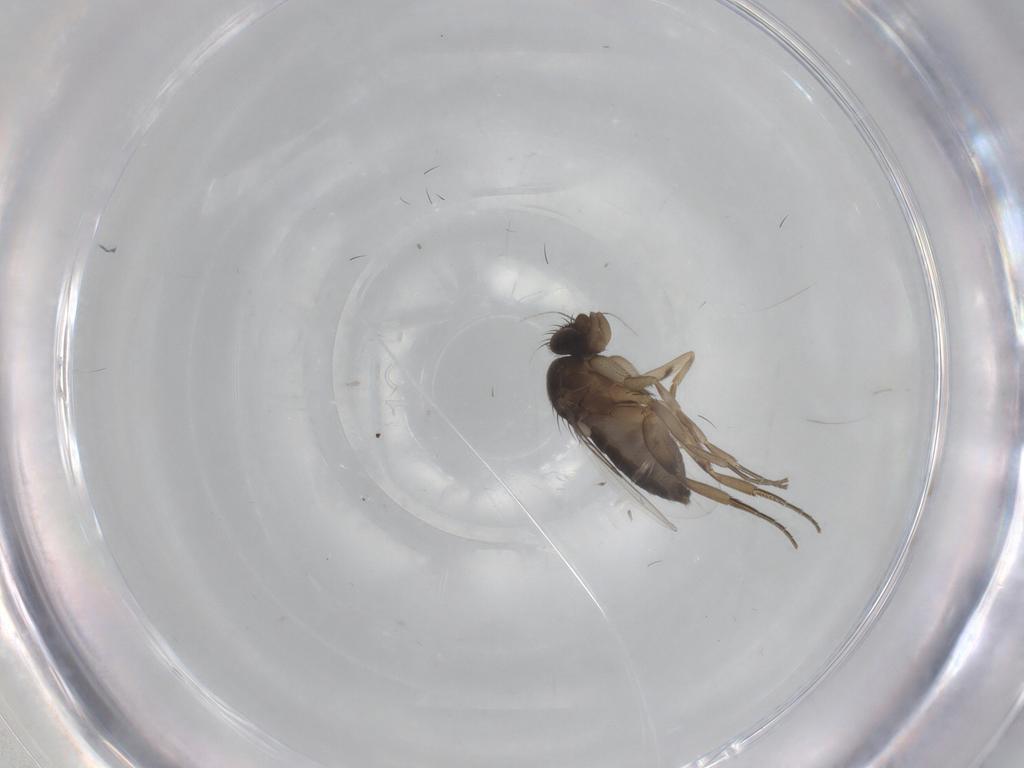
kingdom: Animalia
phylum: Arthropoda
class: Insecta
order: Diptera
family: Phoridae
